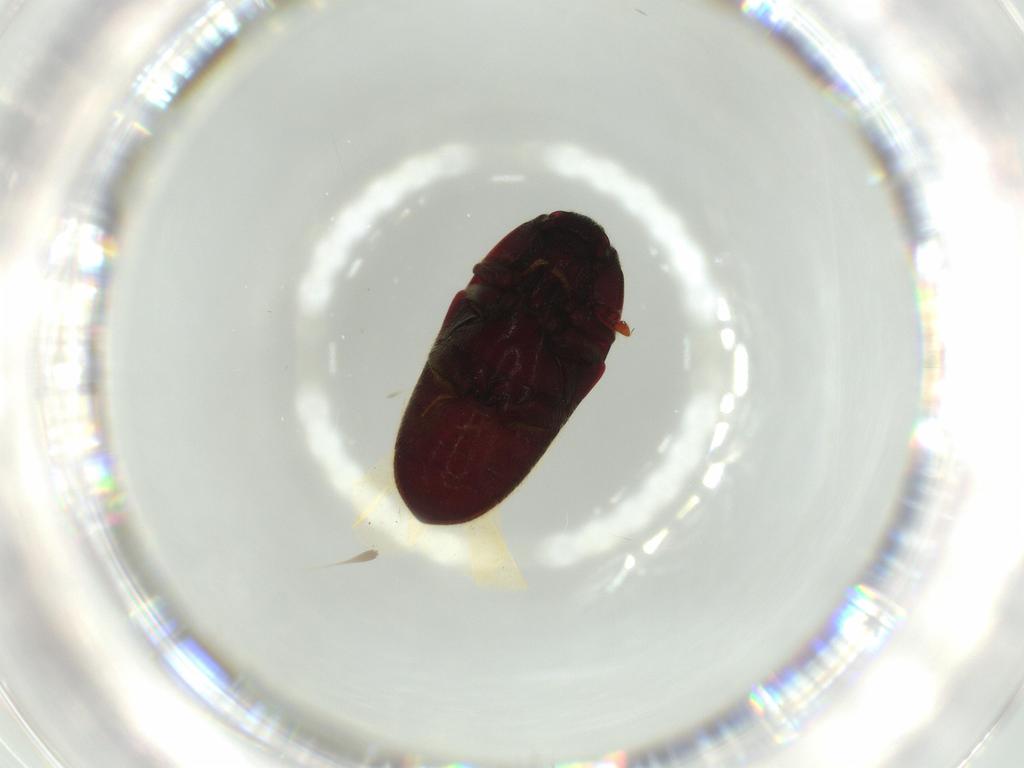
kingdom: Animalia
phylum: Arthropoda
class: Insecta
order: Coleoptera
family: Throscidae
